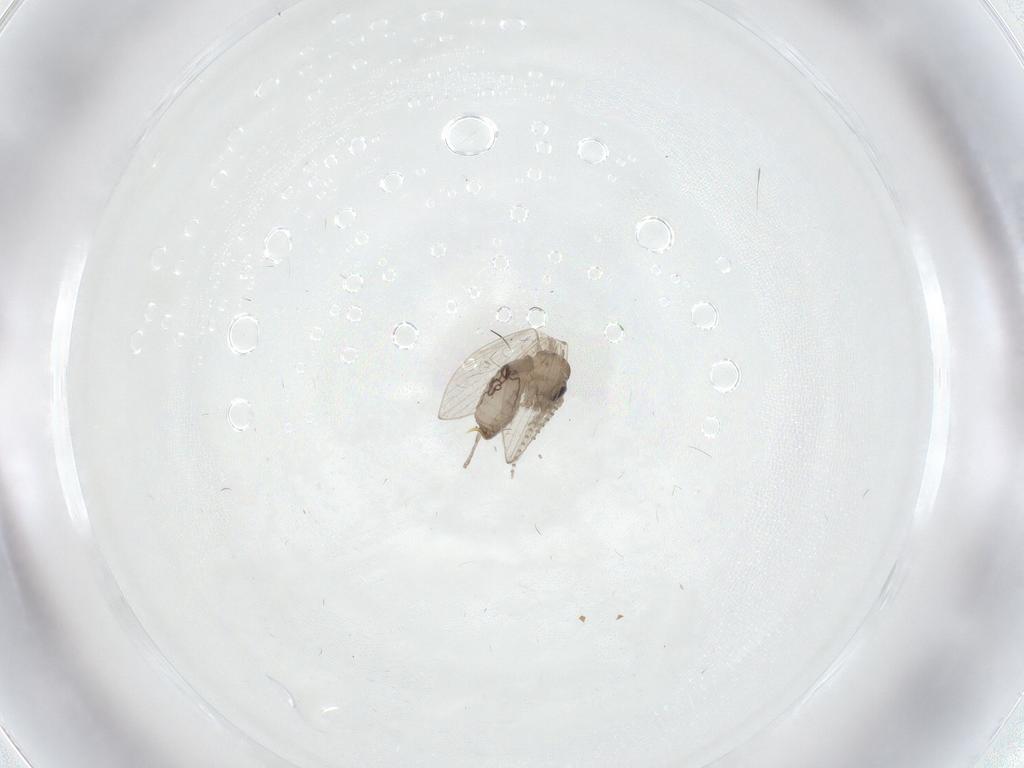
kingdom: Animalia
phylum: Arthropoda
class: Insecta
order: Diptera
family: Psychodidae
